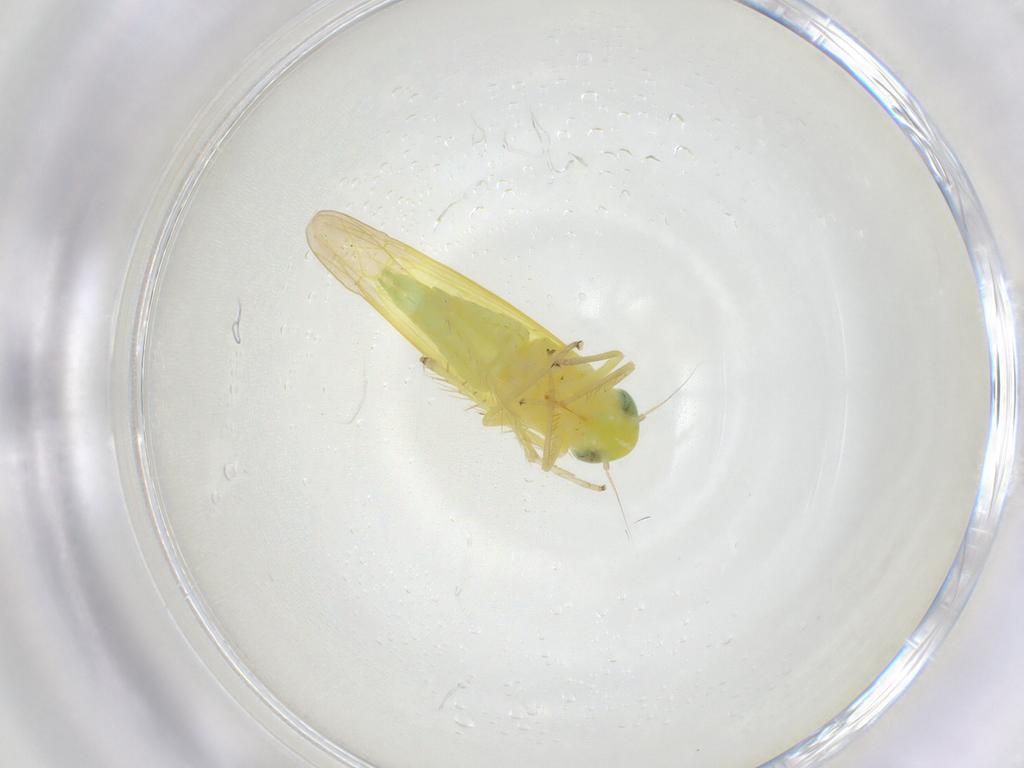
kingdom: Animalia
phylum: Arthropoda
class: Insecta
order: Hemiptera
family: Cicadellidae
